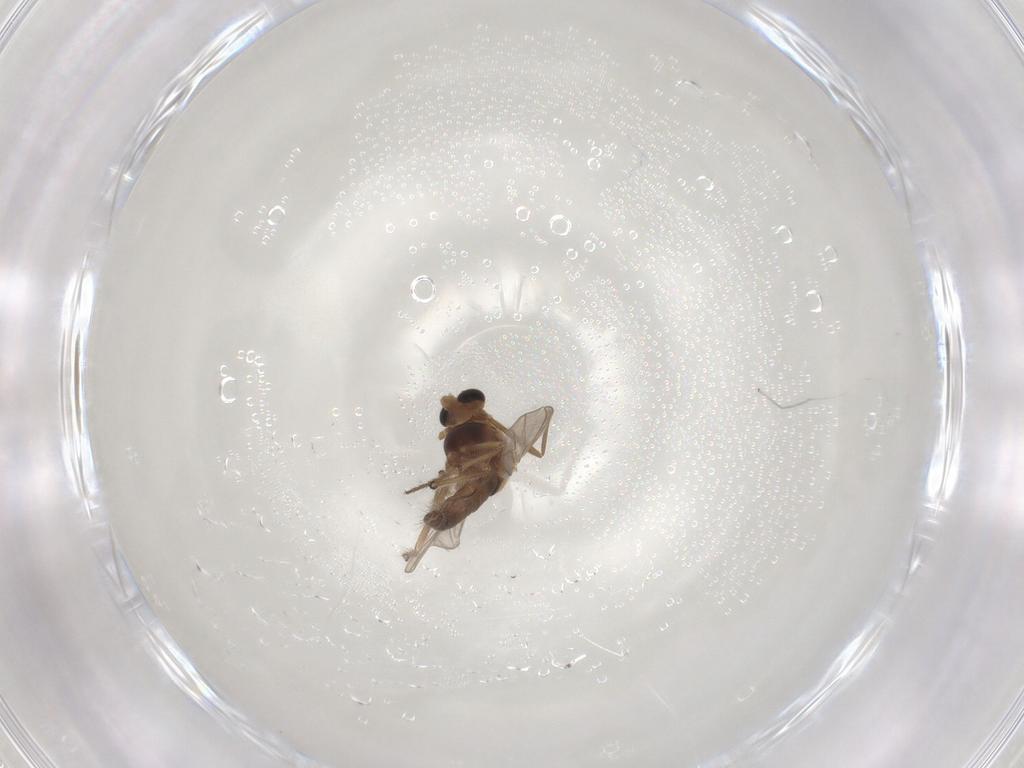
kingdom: Animalia
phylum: Arthropoda
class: Insecta
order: Diptera
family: Chironomidae
